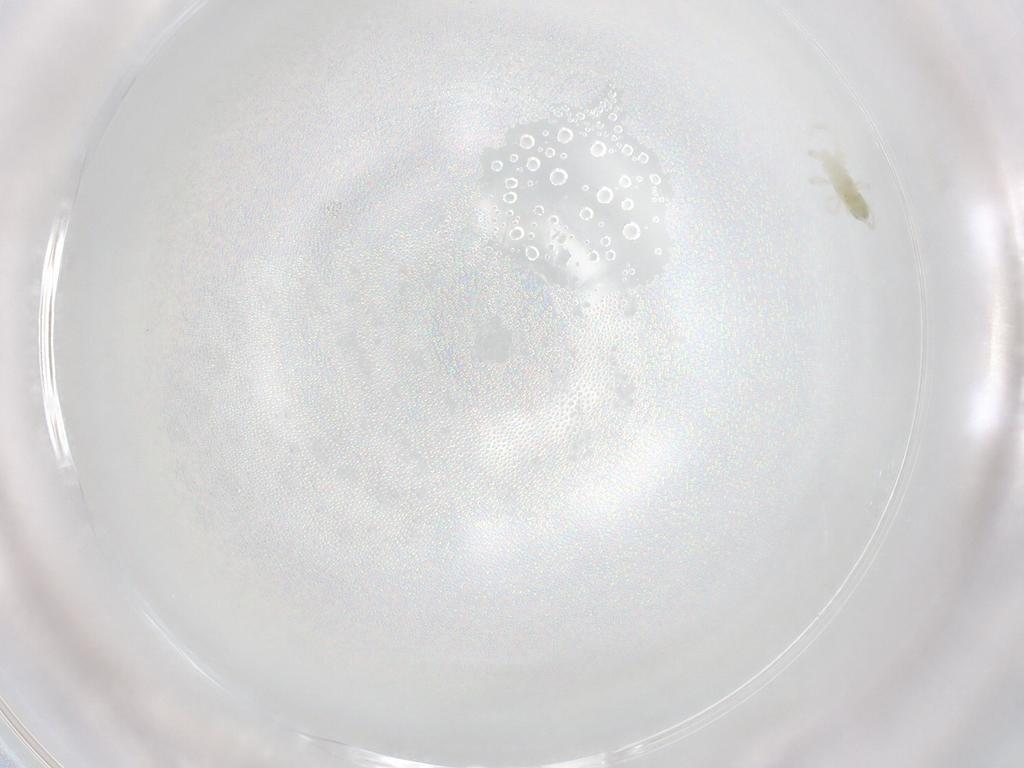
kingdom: Animalia
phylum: Arthropoda
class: Arachnida
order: Trombidiformes
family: Rhagidiidae
